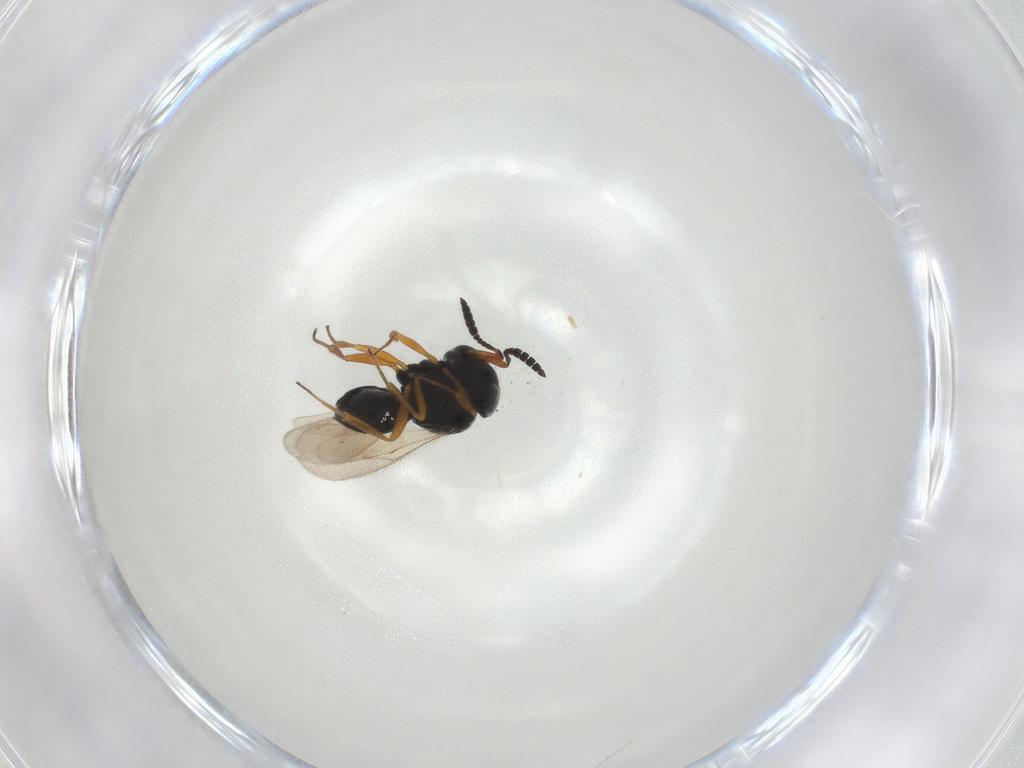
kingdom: Animalia
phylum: Arthropoda
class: Insecta
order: Hymenoptera
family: Scelionidae
